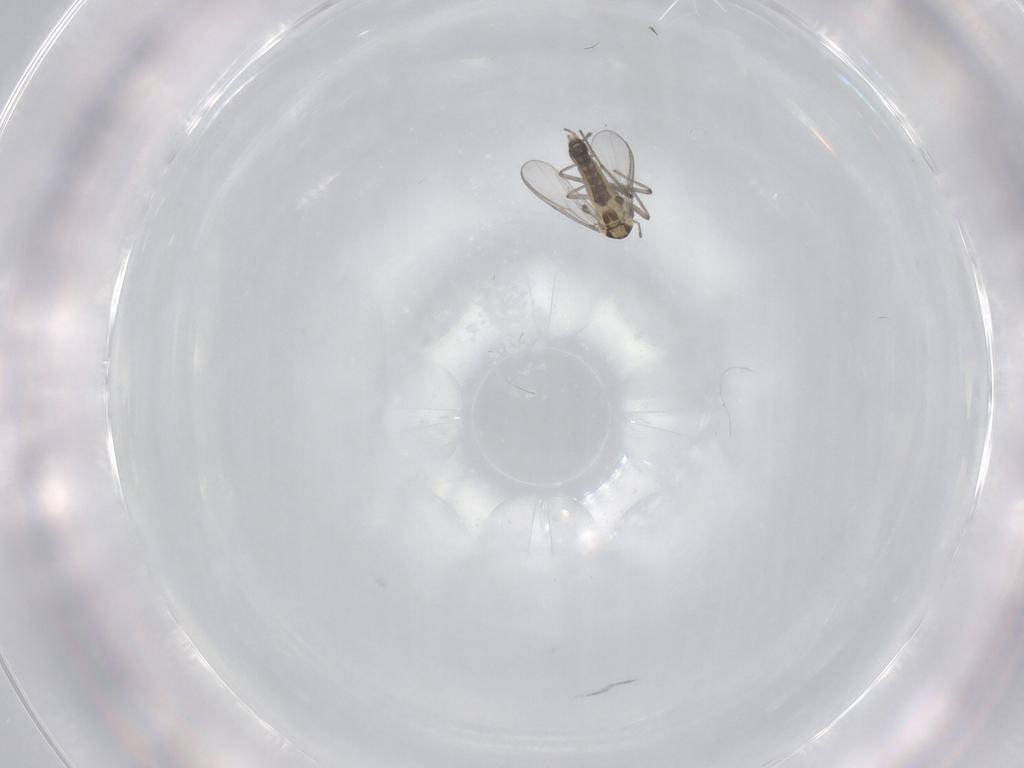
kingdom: Animalia
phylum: Arthropoda
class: Insecta
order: Diptera
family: Chironomidae
